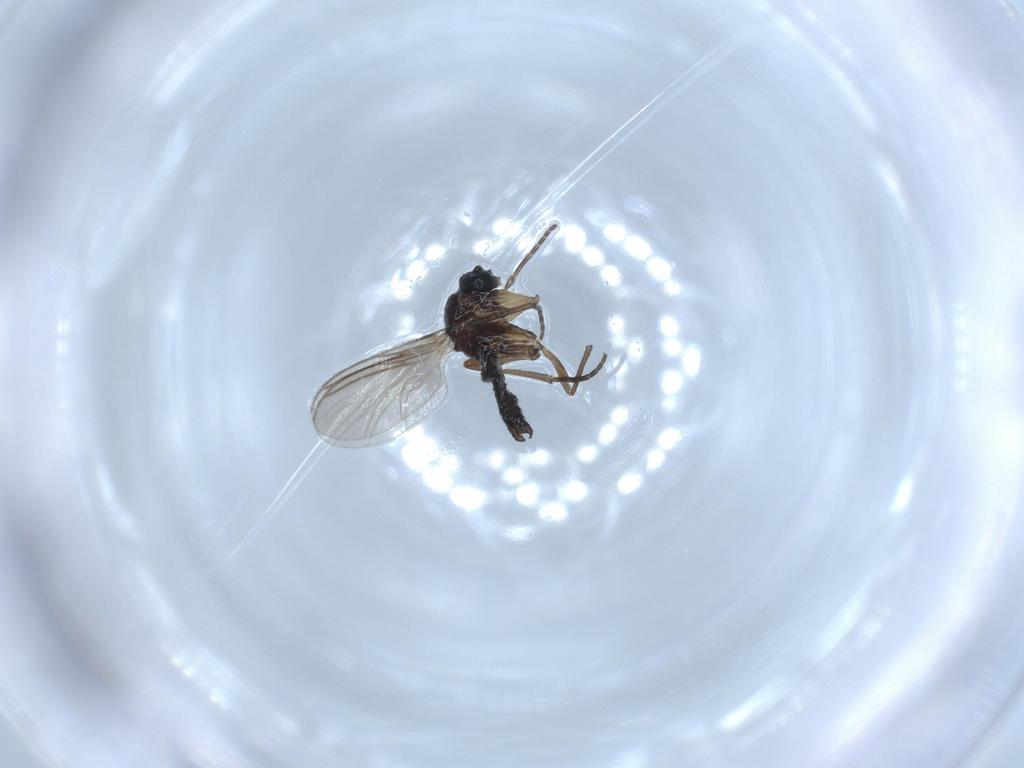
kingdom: Animalia
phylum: Arthropoda
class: Insecta
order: Diptera
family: Sciaridae
